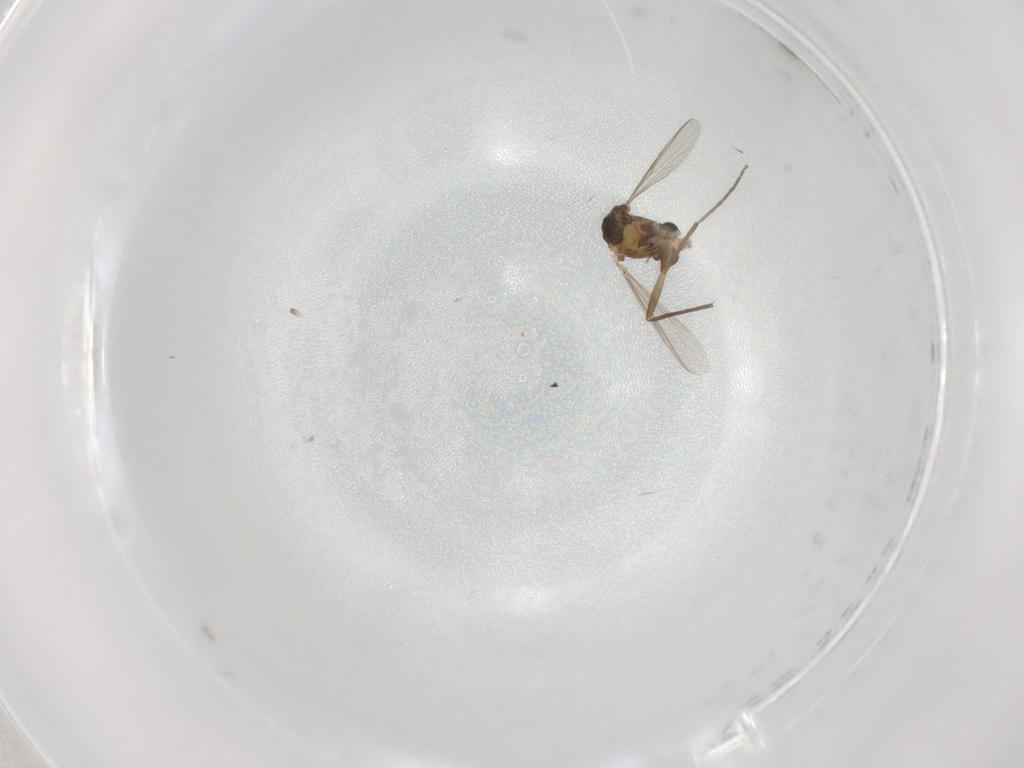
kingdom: Animalia
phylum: Arthropoda
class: Insecta
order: Diptera
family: Chironomidae
